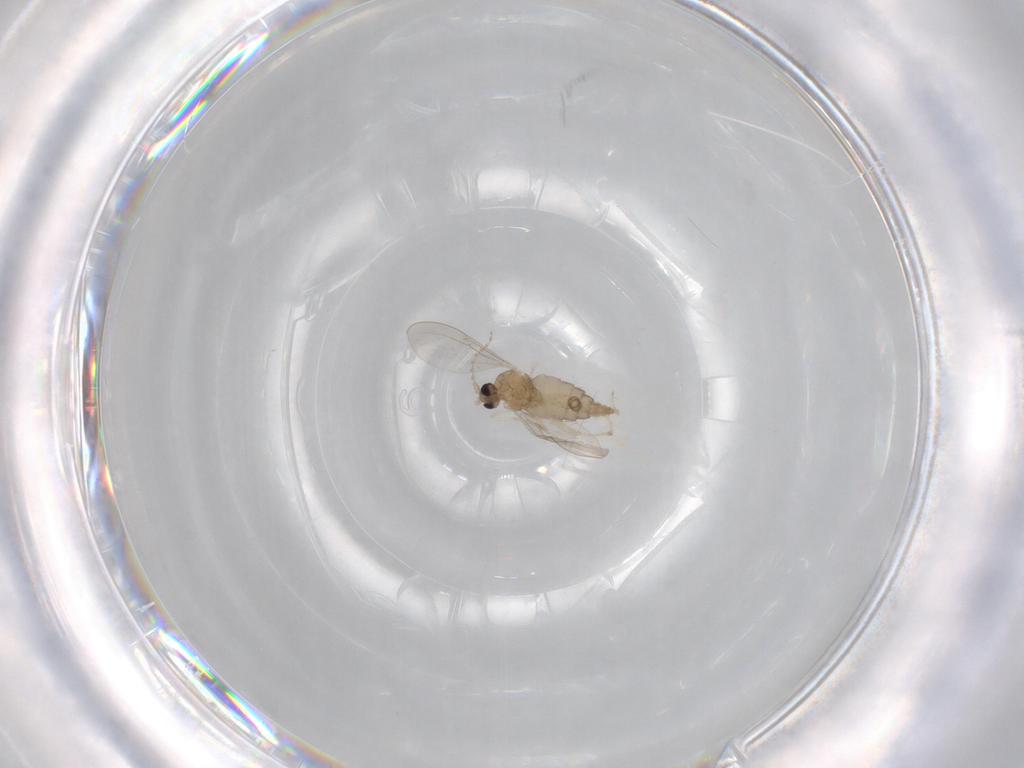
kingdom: Animalia
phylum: Arthropoda
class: Insecta
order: Diptera
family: Cecidomyiidae
